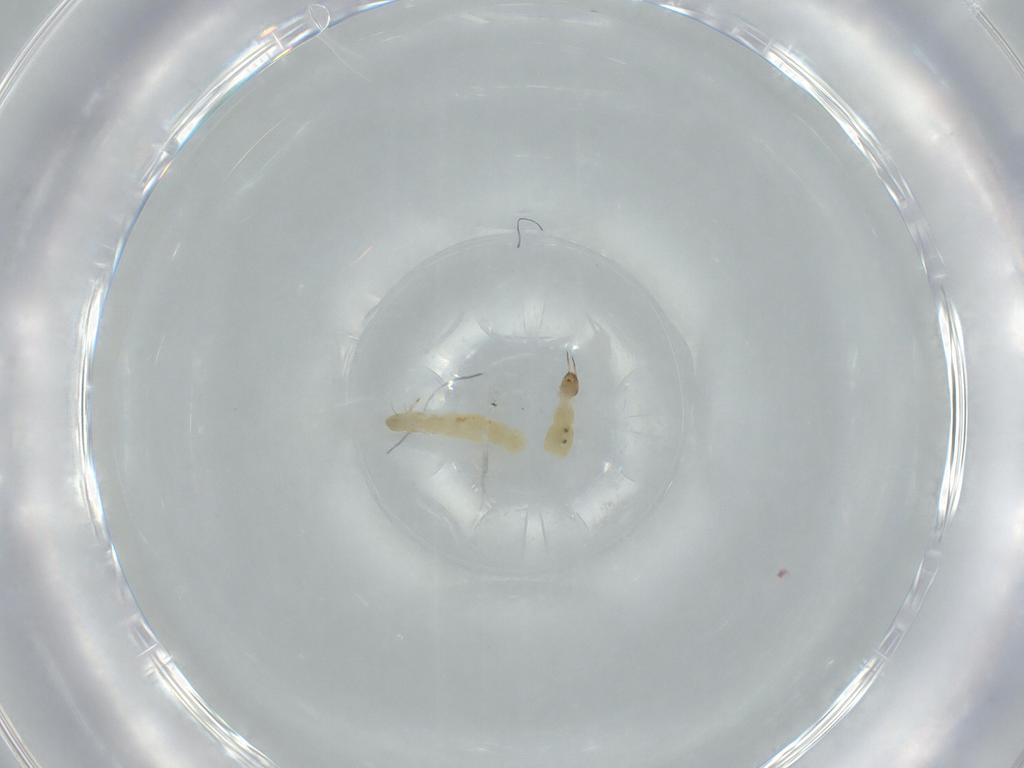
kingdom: Animalia
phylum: Arthropoda
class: Insecta
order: Diptera
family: Chironomidae
